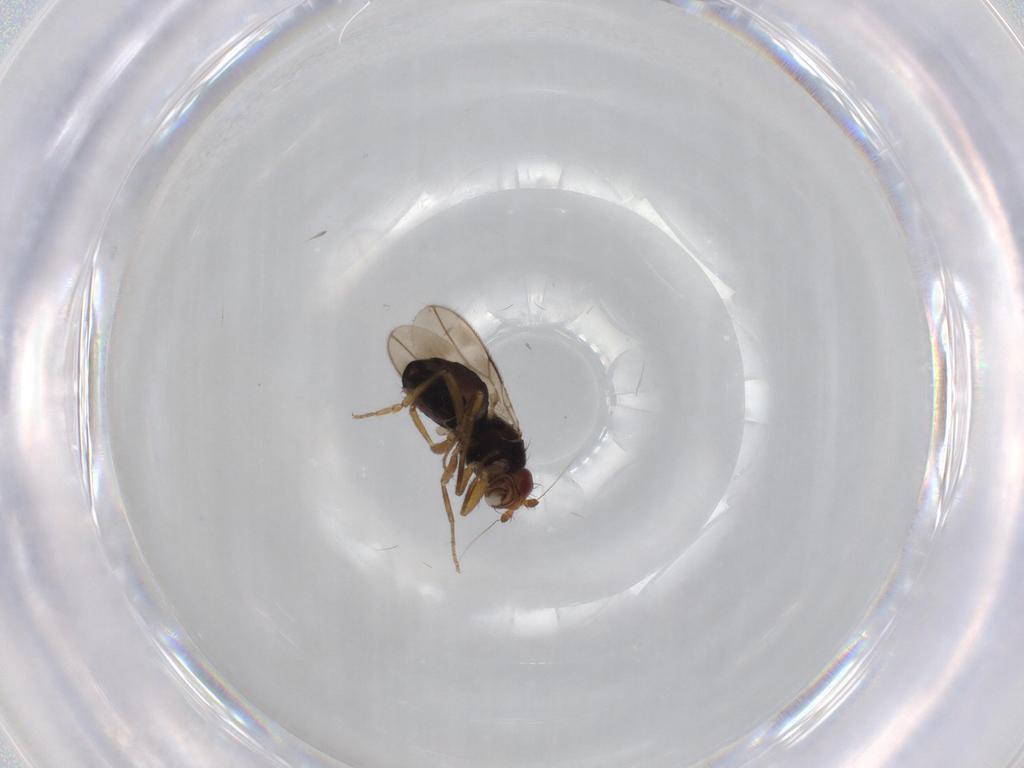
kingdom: Animalia
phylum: Arthropoda
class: Insecta
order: Diptera
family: Sphaeroceridae
